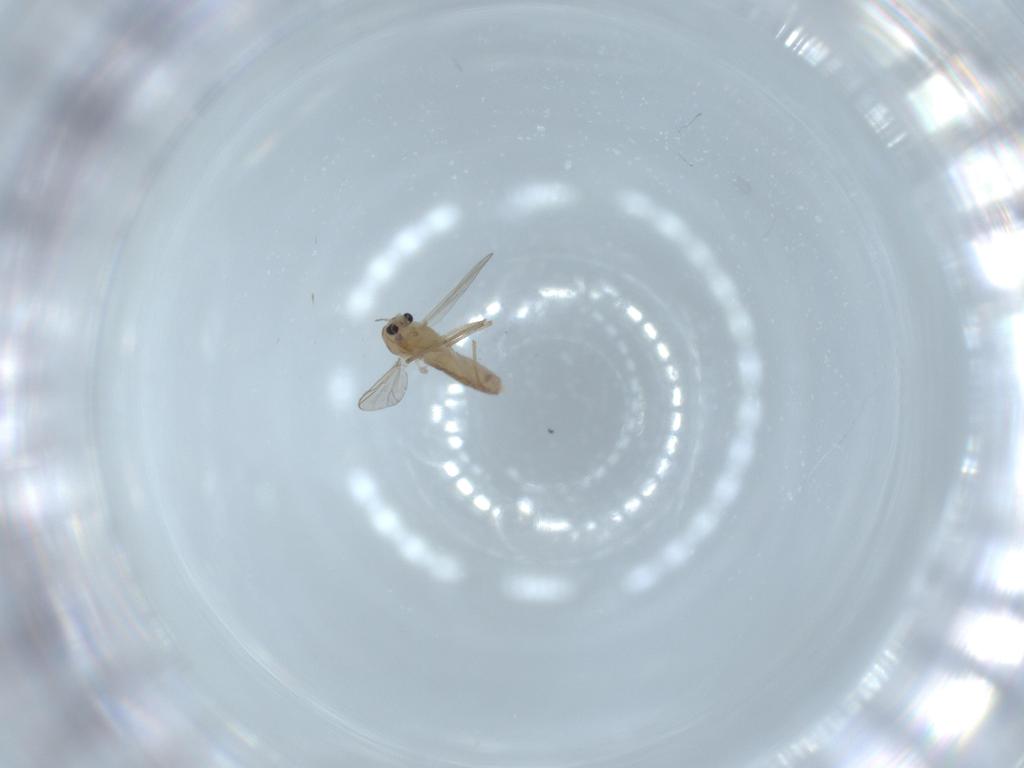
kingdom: Animalia
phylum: Arthropoda
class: Insecta
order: Diptera
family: Chironomidae
